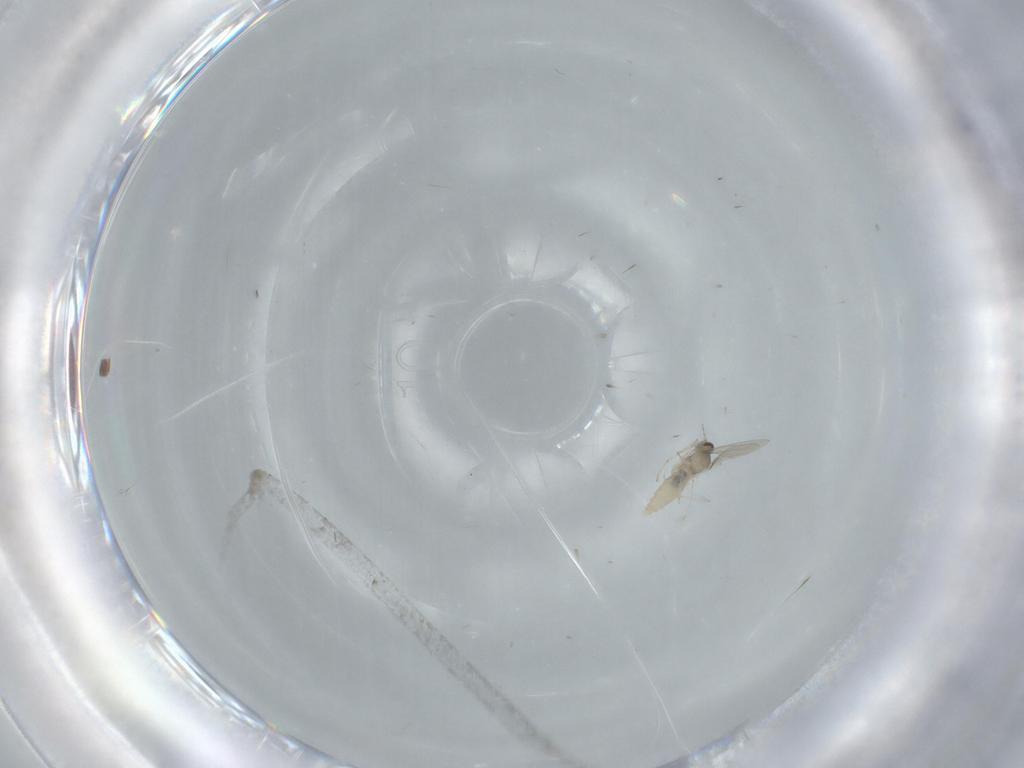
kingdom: Animalia
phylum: Arthropoda
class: Insecta
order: Diptera
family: Cecidomyiidae
